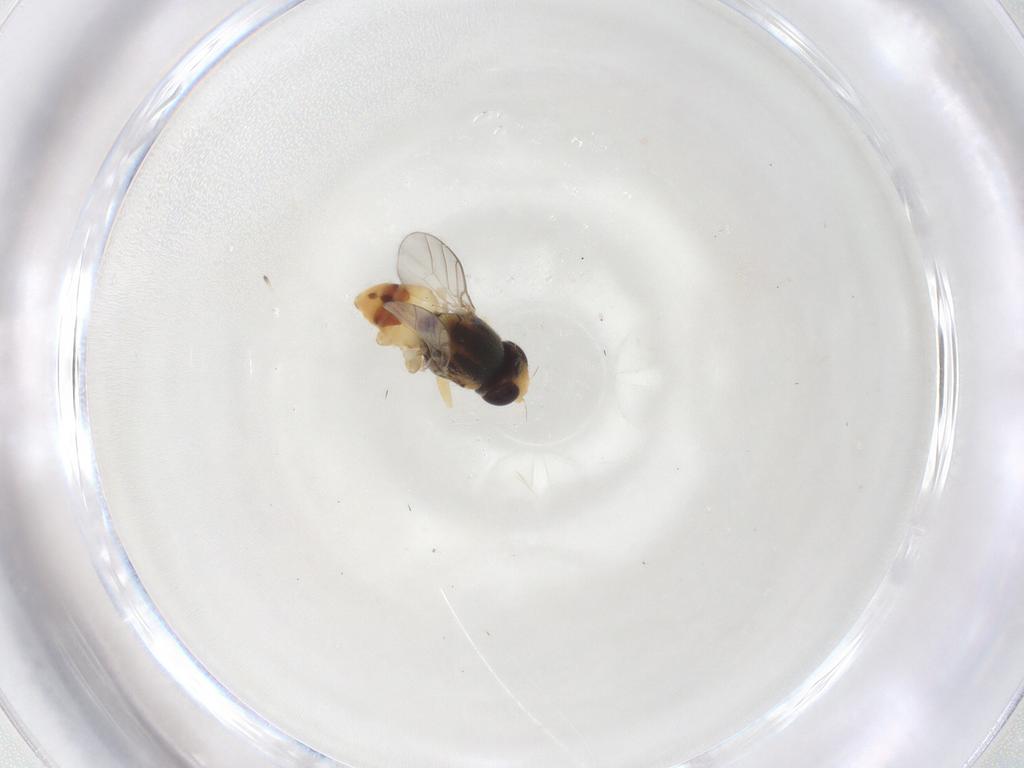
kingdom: Animalia
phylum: Arthropoda
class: Insecta
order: Diptera
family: Chloropidae
